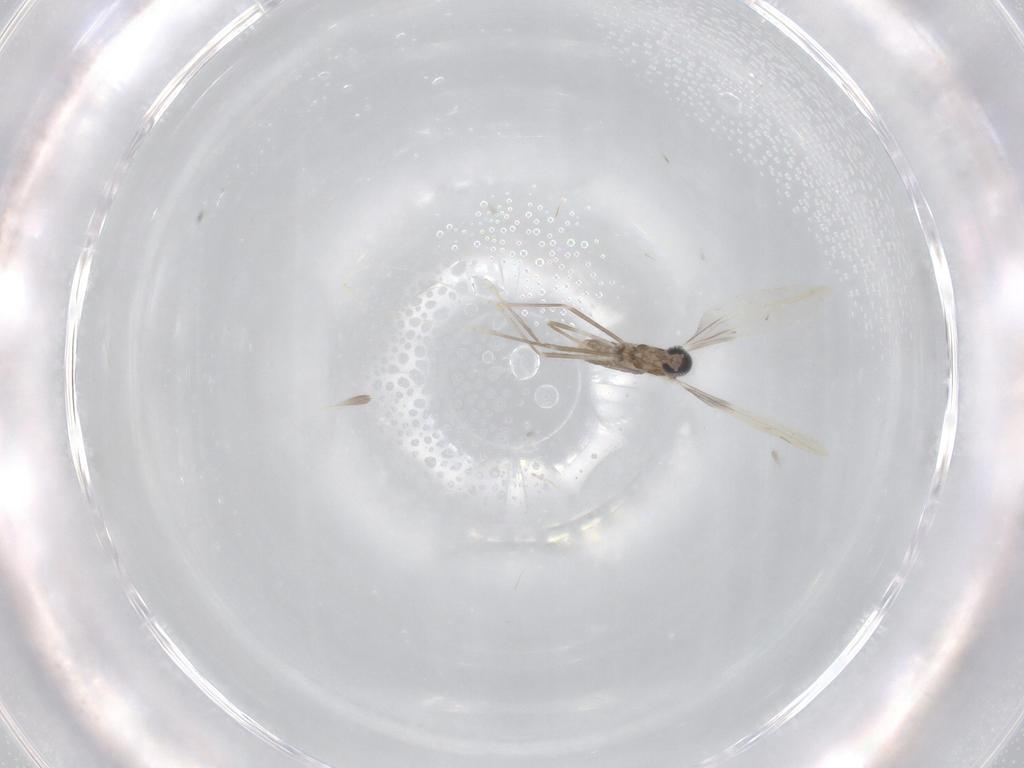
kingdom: Animalia
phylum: Arthropoda
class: Insecta
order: Diptera
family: Cecidomyiidae
